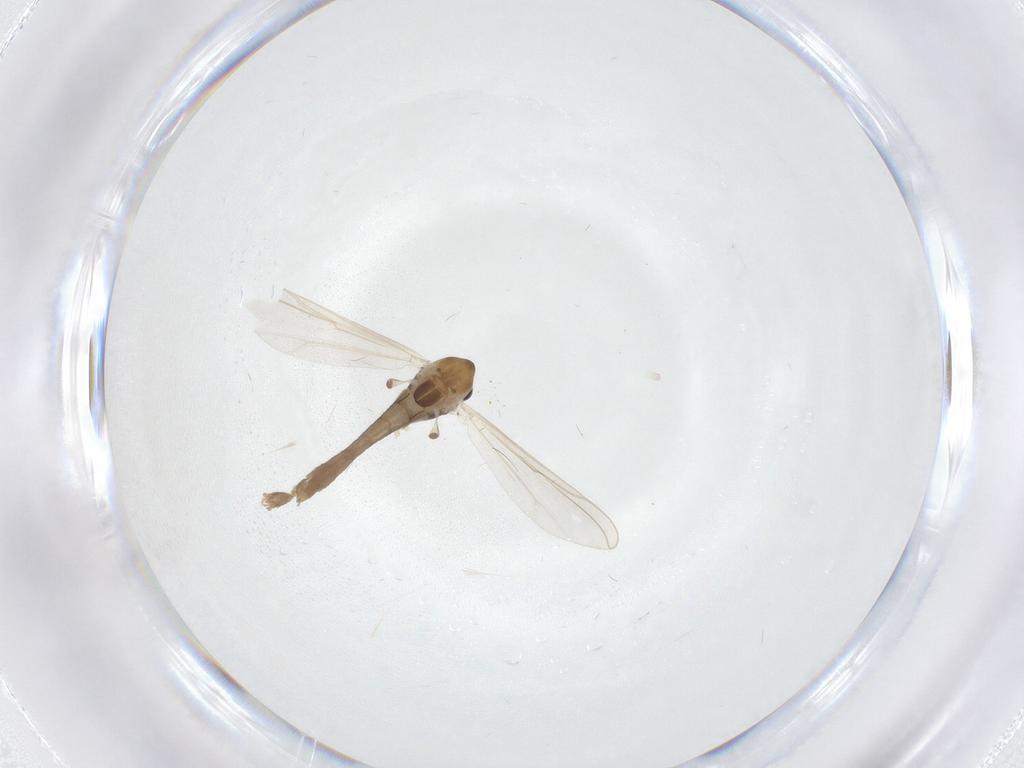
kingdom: Animalia
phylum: Arthropoda
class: Insecta
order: Diptera
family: Chironomidae
